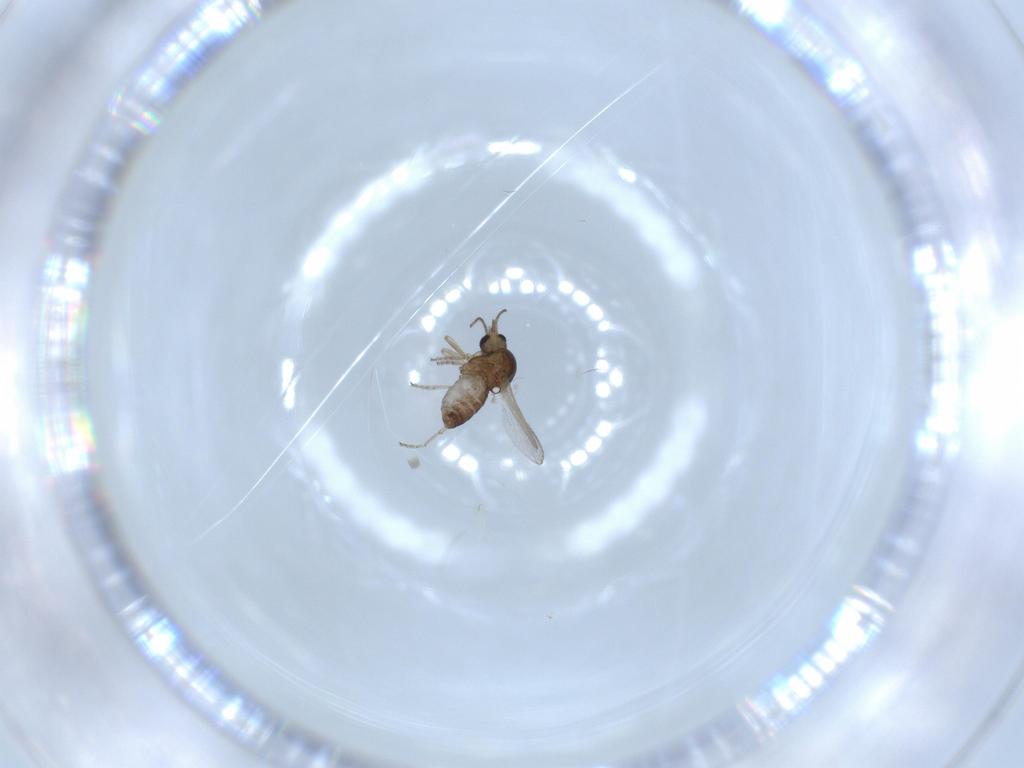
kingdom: Animalia
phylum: Arthropoda
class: Insecta
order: Diptera
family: Ceratopogonidae
